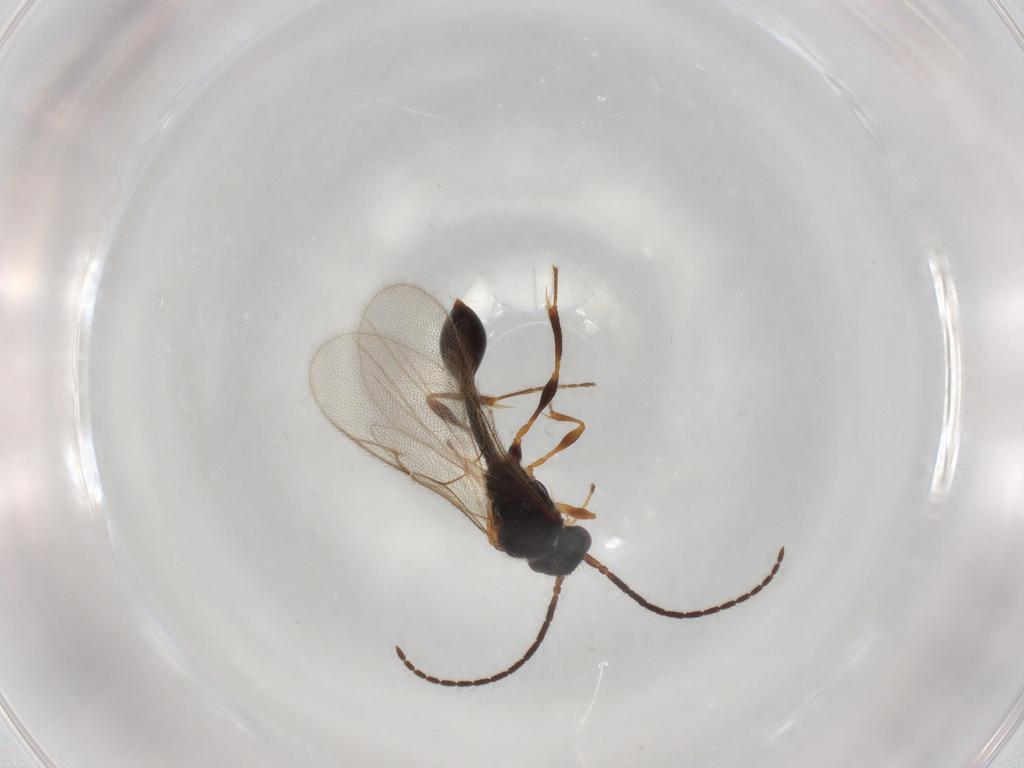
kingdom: Animalia
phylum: Arthropoda
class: Insecta
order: Hymenoptera
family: Diapriidae
